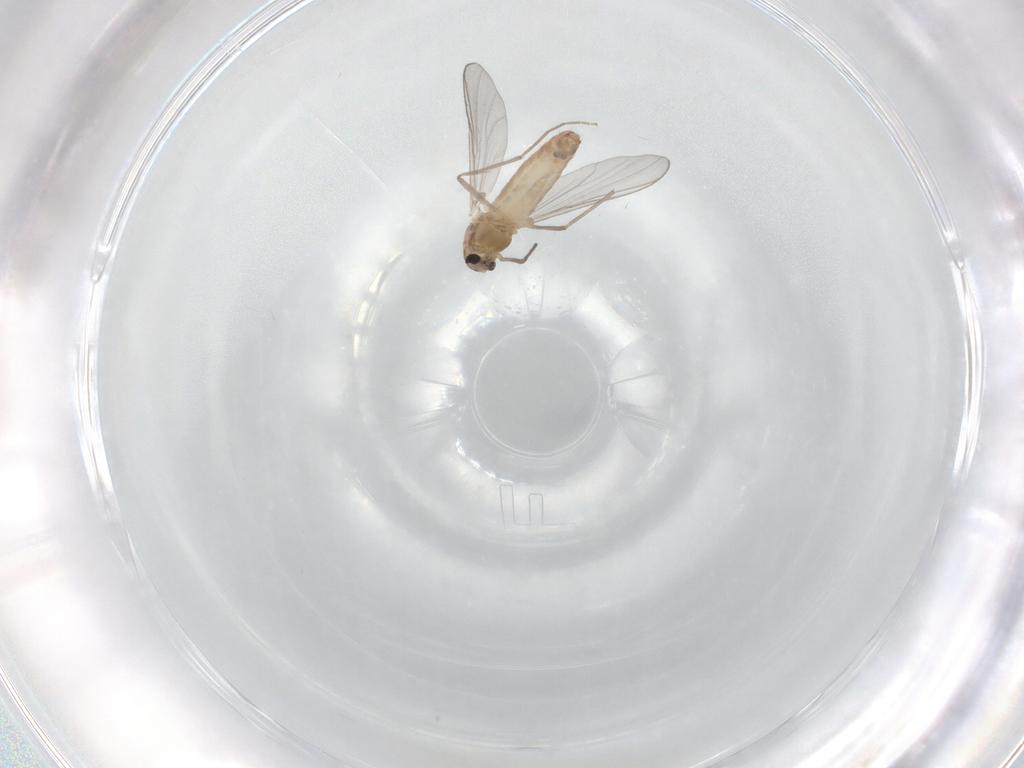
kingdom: Animalia
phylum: Arthropoda
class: Insecta
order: Diptera
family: Chironomidae
